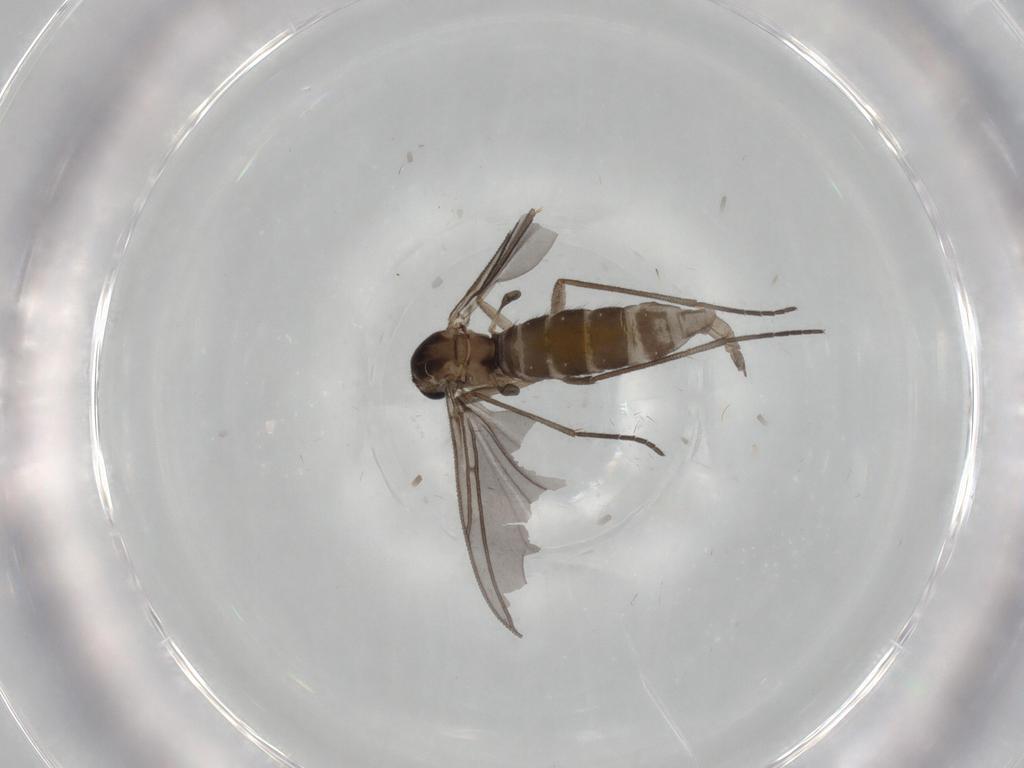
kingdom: Animalia
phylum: Arthropoda
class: Insecta
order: Diptera
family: Sciaridae
